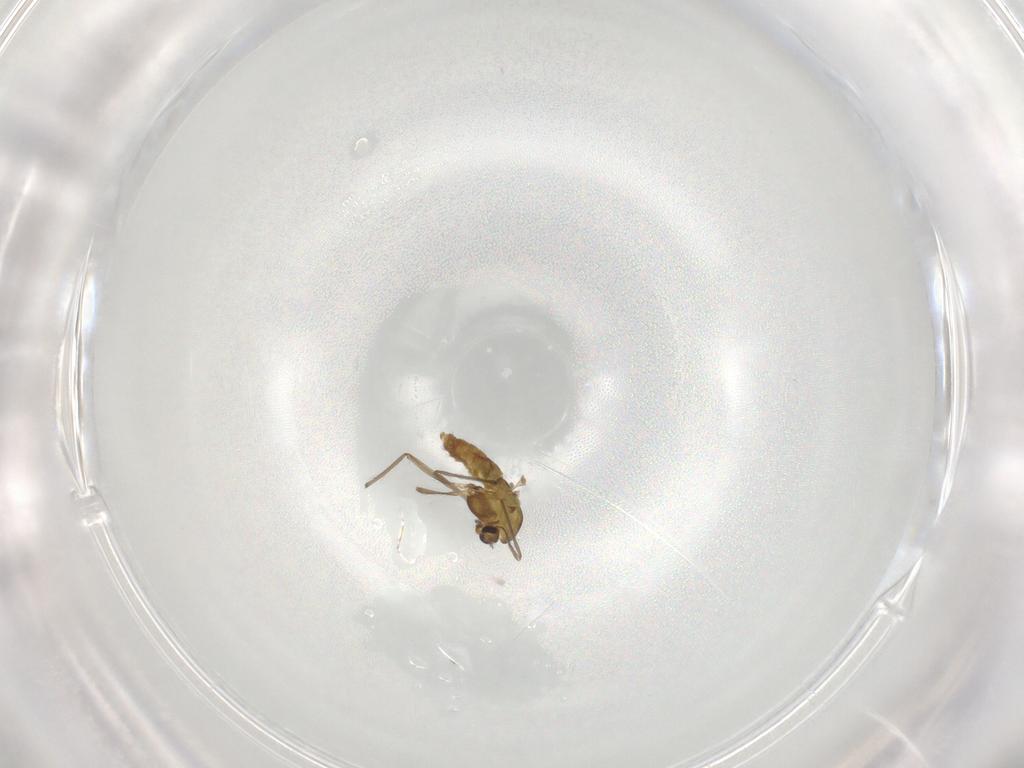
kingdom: Animalia
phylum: Arthropoda
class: Insecta
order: Diptera
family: Chironomidae
